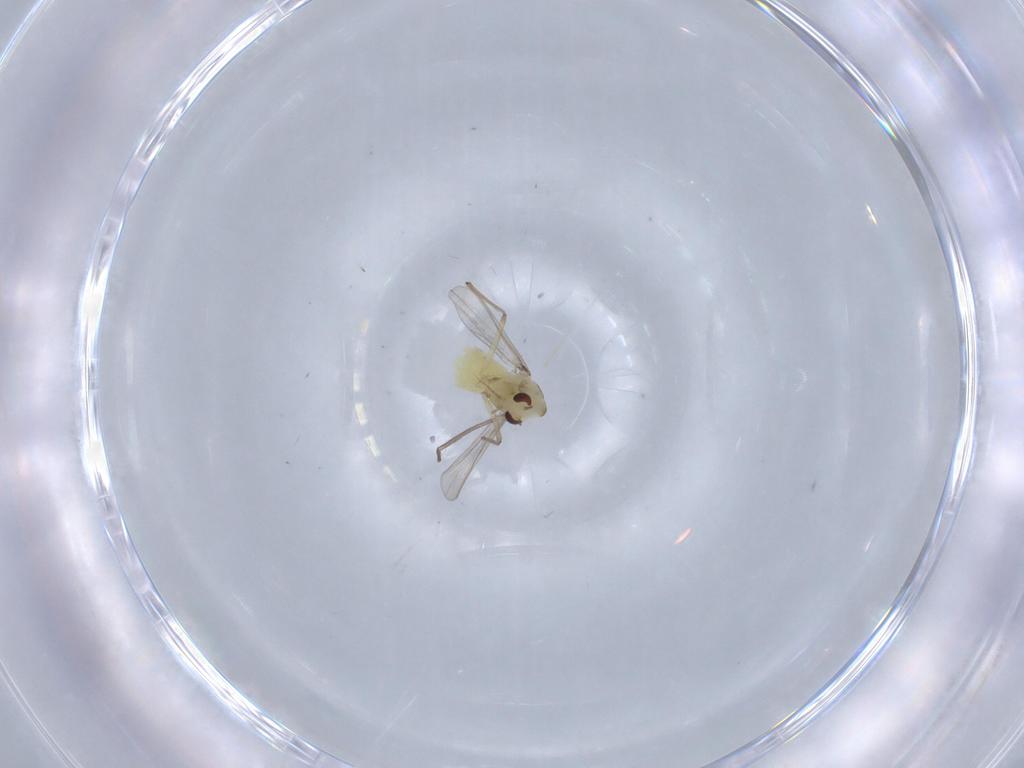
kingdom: Animalia
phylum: Arthropoda
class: Insecta
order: Diptera
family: Chironomidae
